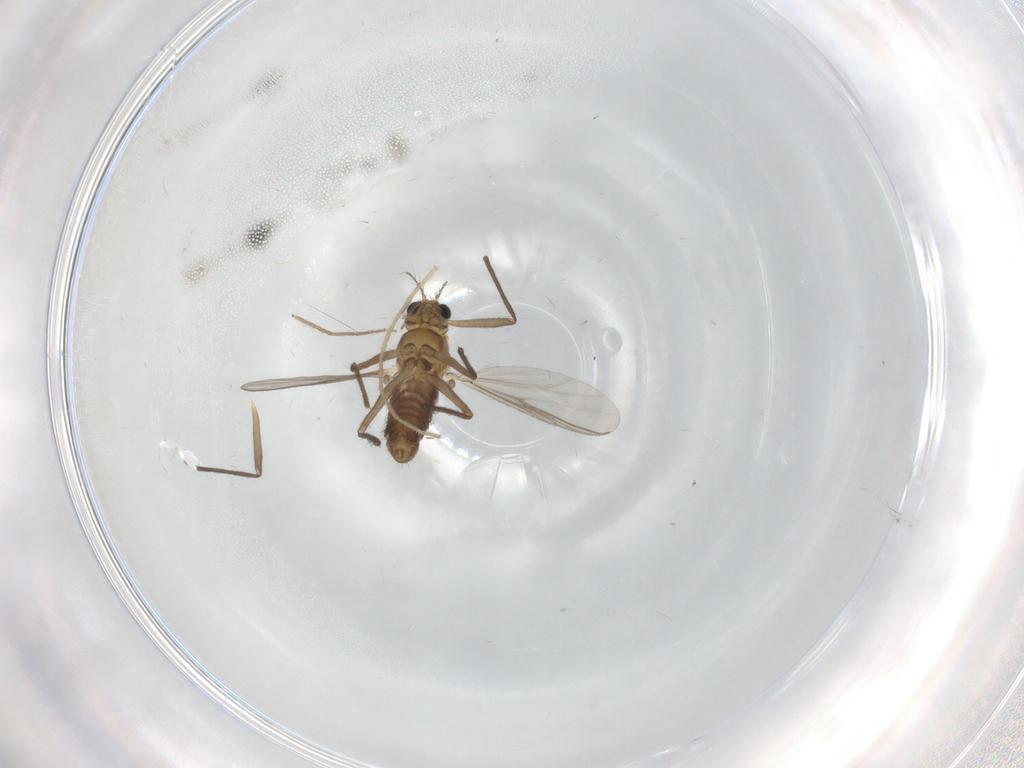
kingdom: Animalia
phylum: Arthropoda
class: Insecta
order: Diptera
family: Chironomidae
